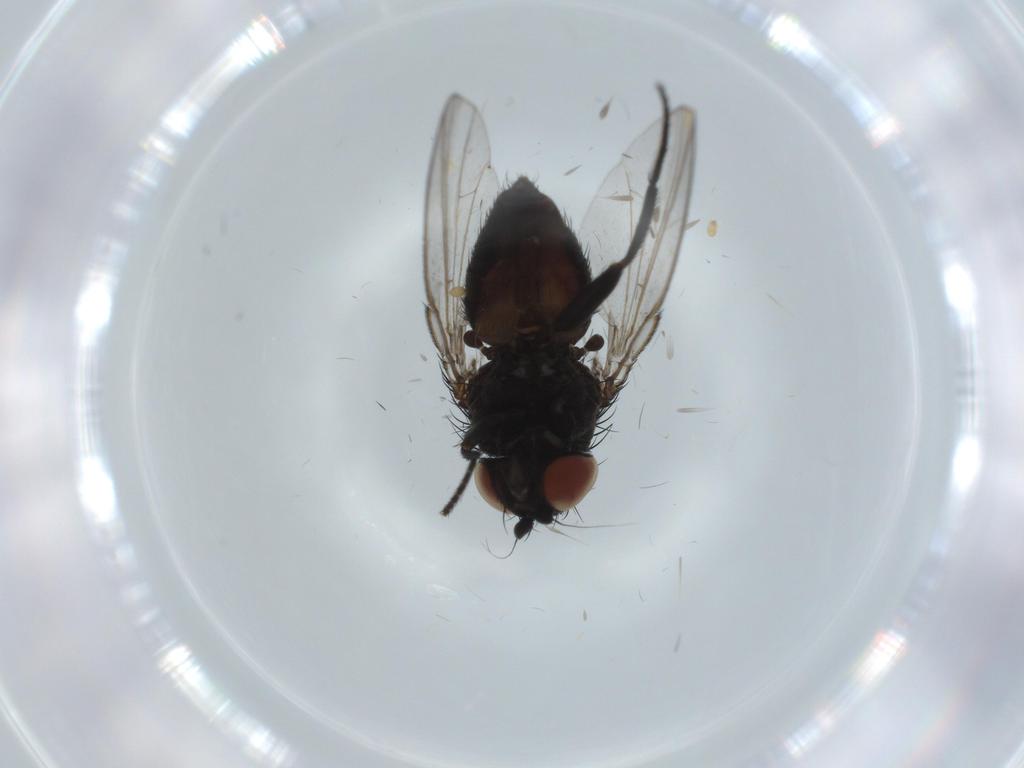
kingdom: Animalia
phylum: Arthropoda
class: Insecta
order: Diptera
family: Phoridae
